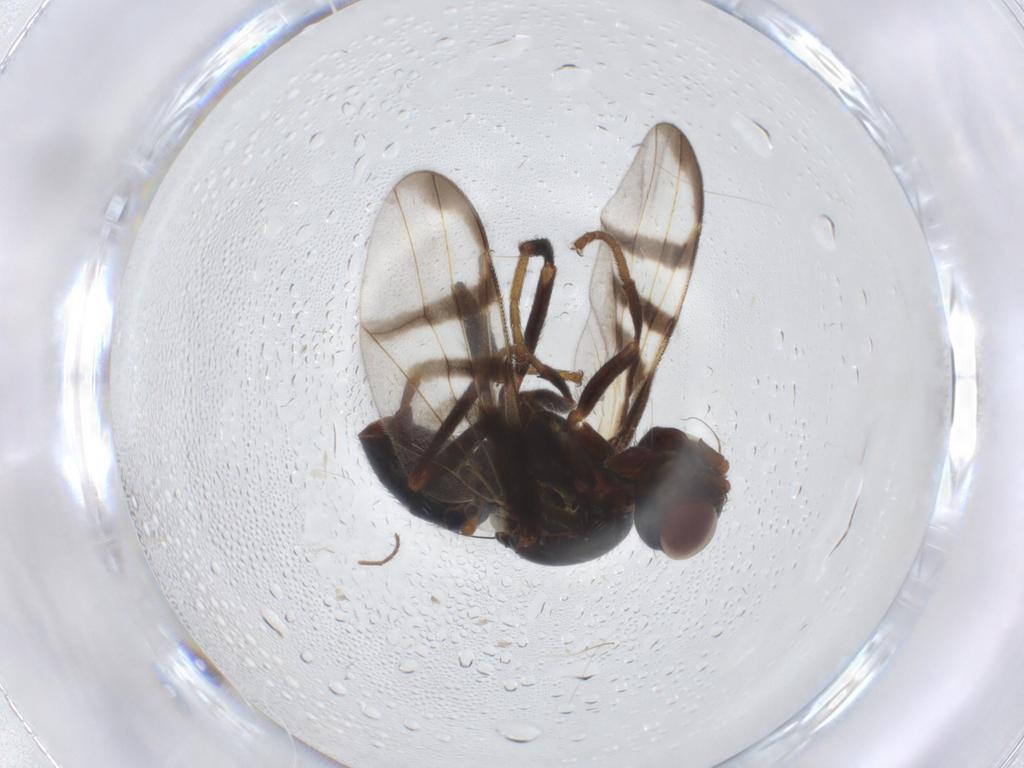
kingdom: Animalia
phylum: Arthropoda
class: Insecta
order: Diptera
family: Platystomatidae
